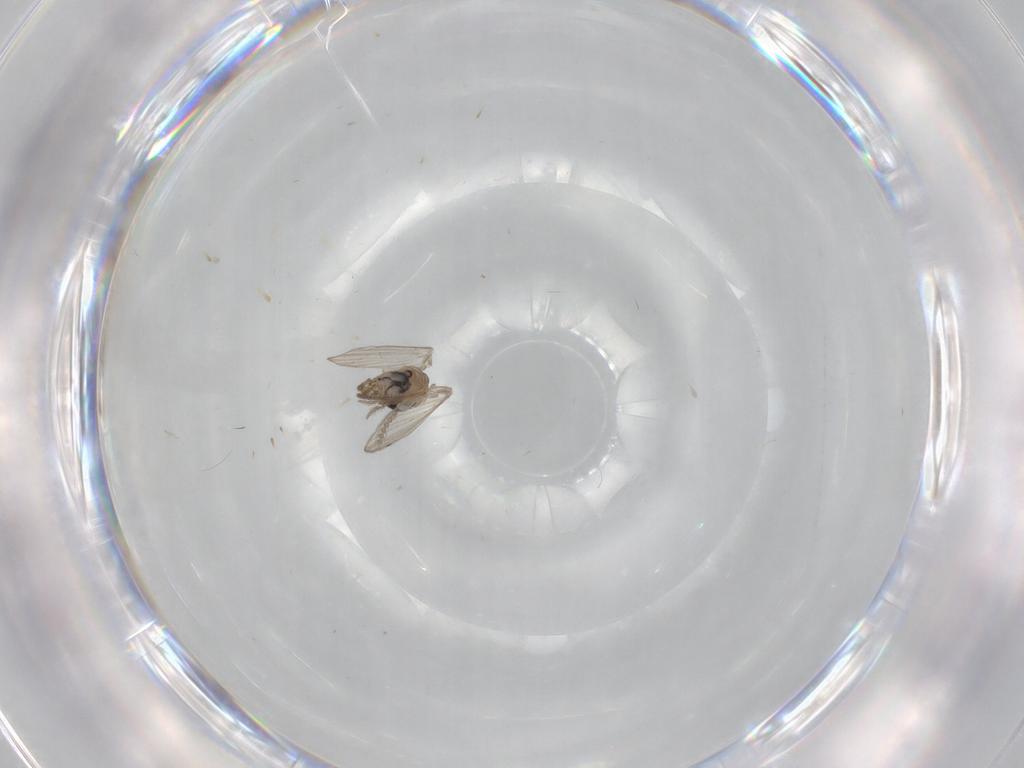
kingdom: Animalia
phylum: Arthropoda
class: Insecta
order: Diptera
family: Psychodidae
